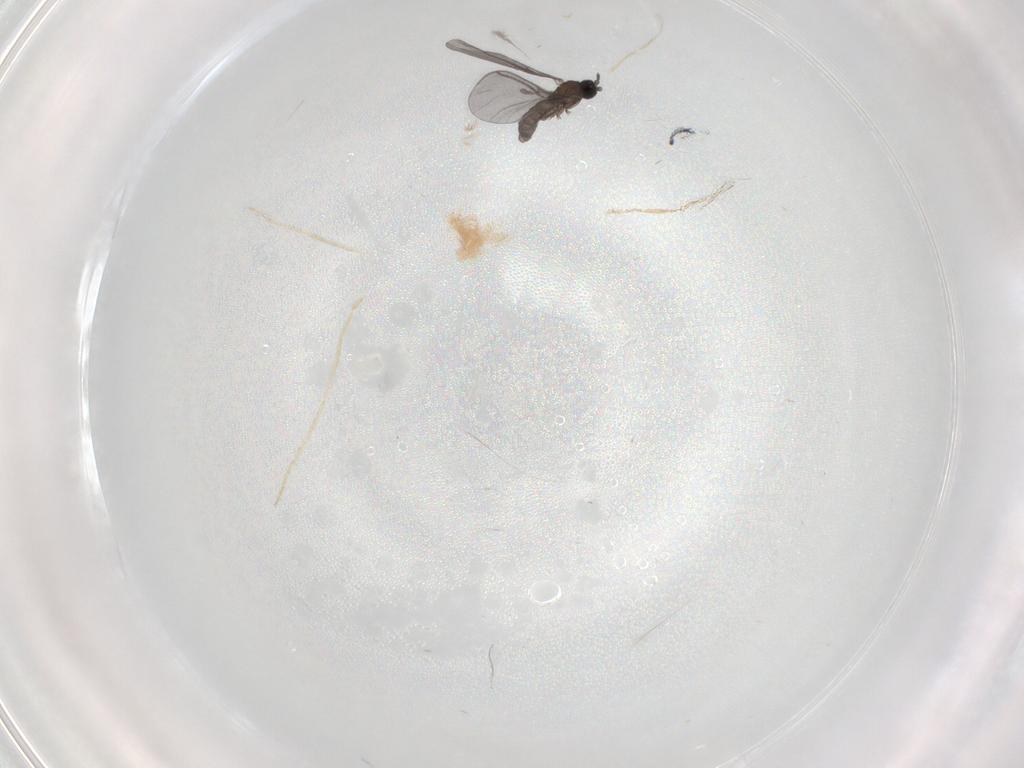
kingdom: Animalia
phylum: Arthropoda
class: Insecta
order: Diptera
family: Sciaridae
